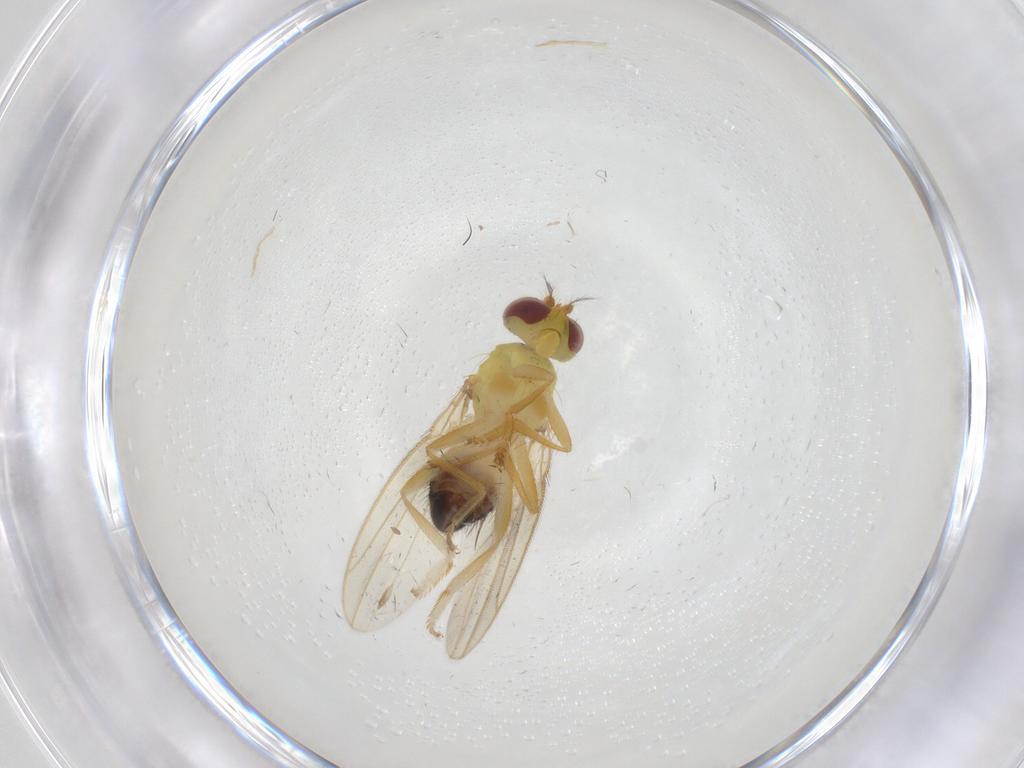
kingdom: Animalia
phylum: Arthropoda
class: Insecta
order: Diptera
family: Periscelididae
